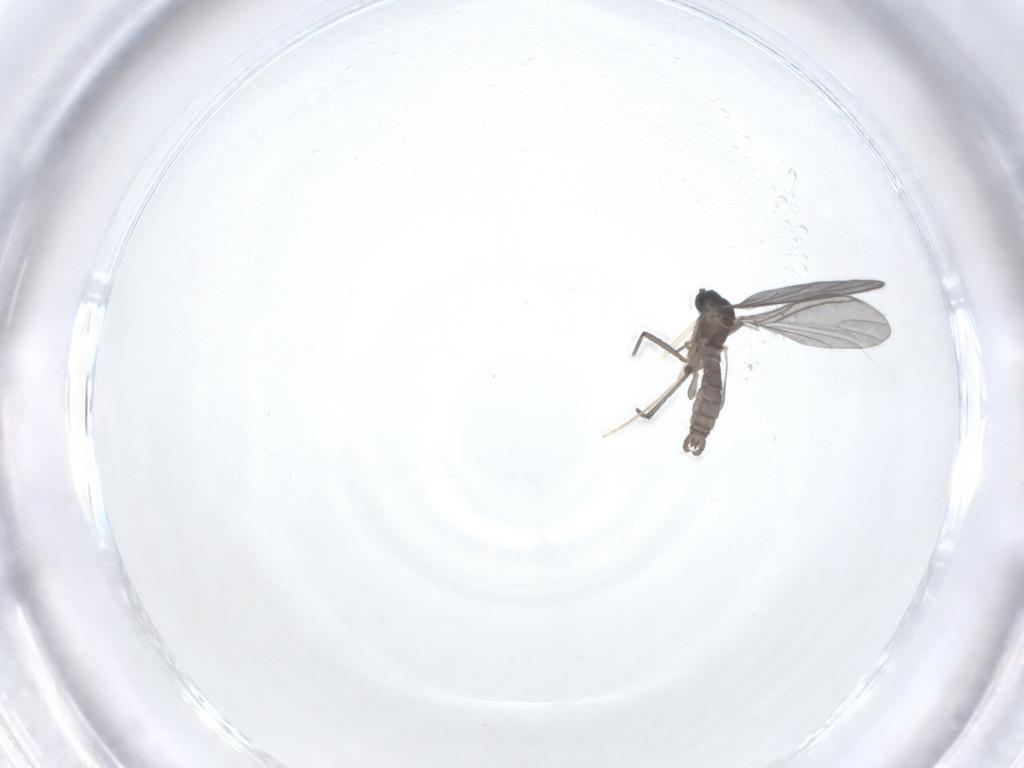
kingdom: Animalia
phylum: Arthropoda
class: Insecta
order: Diptera
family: Sciaridae
